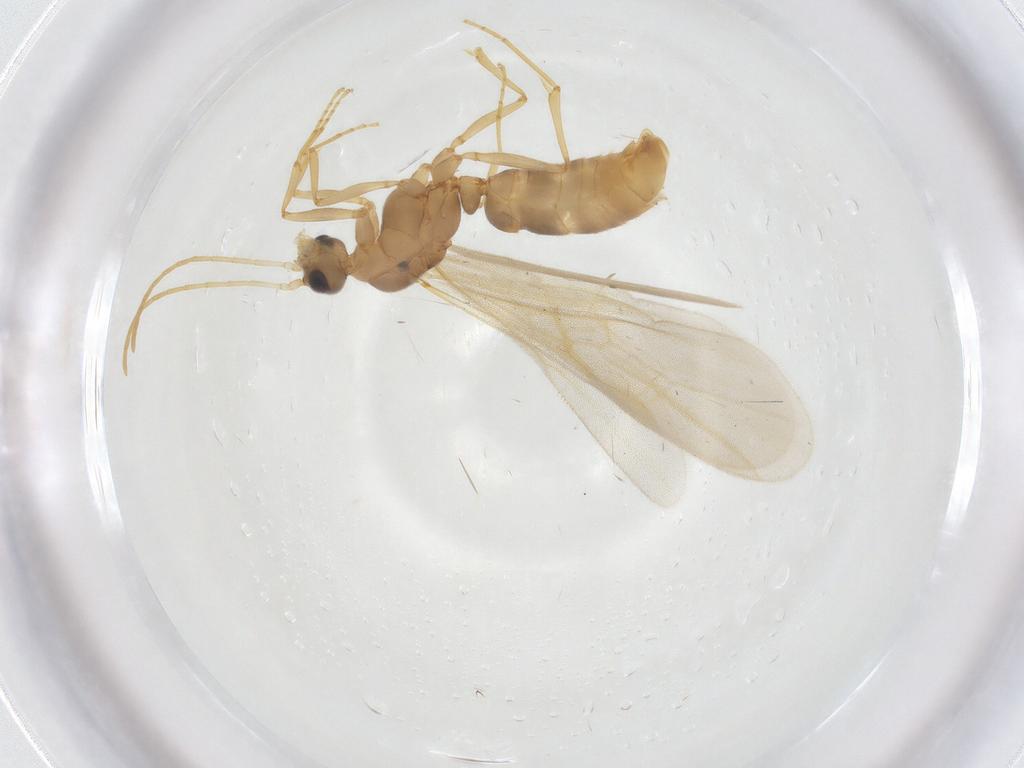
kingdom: Animalia
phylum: Arthropoda
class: Insecta
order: Hymenoptera
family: Formicidae
